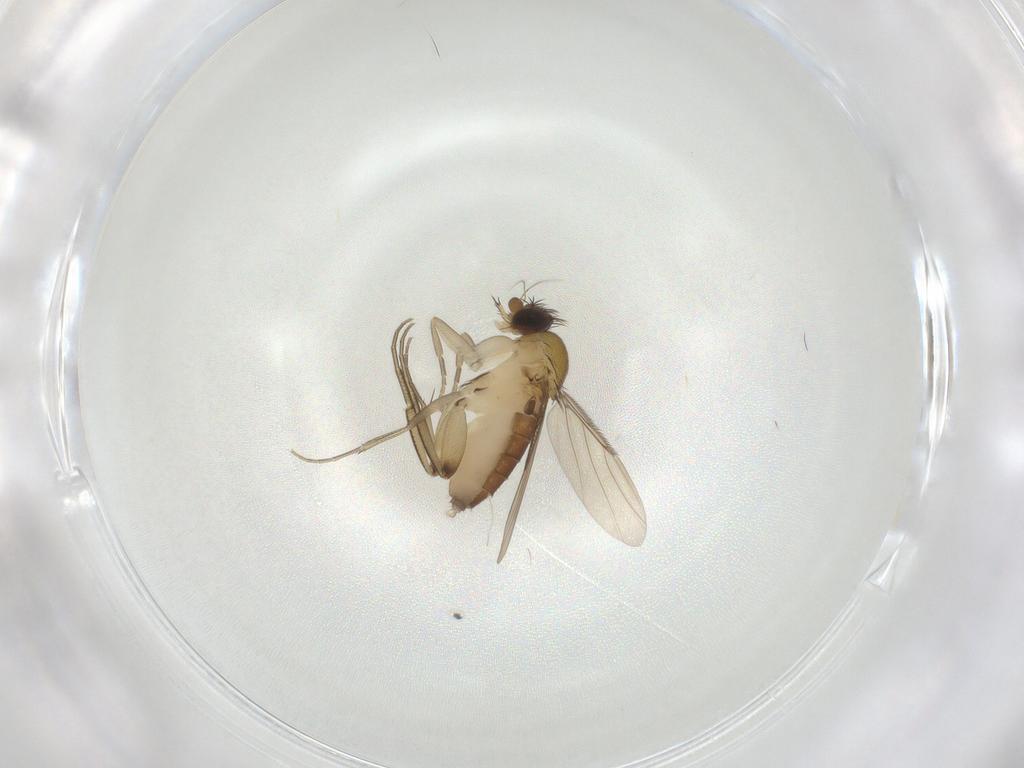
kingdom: Animalia
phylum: Arthropoda
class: Insecta
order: Diptera
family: Phoridae
